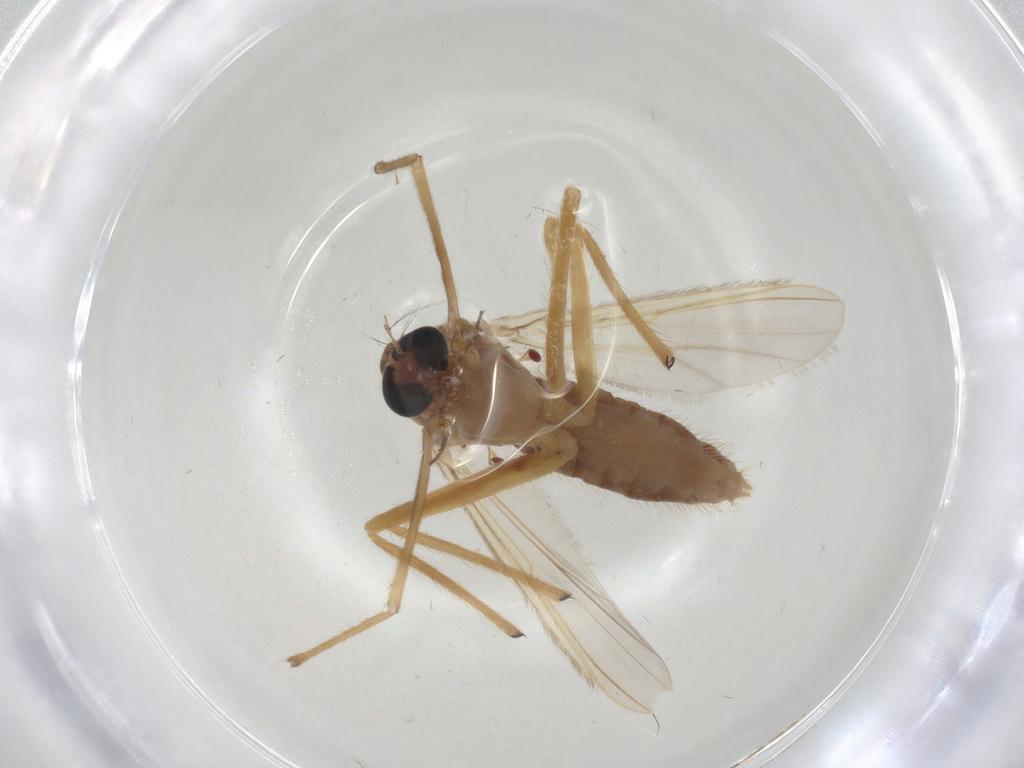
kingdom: Animalia
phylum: Arthropoda
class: Insecta
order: Diptera
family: Chironomidae
